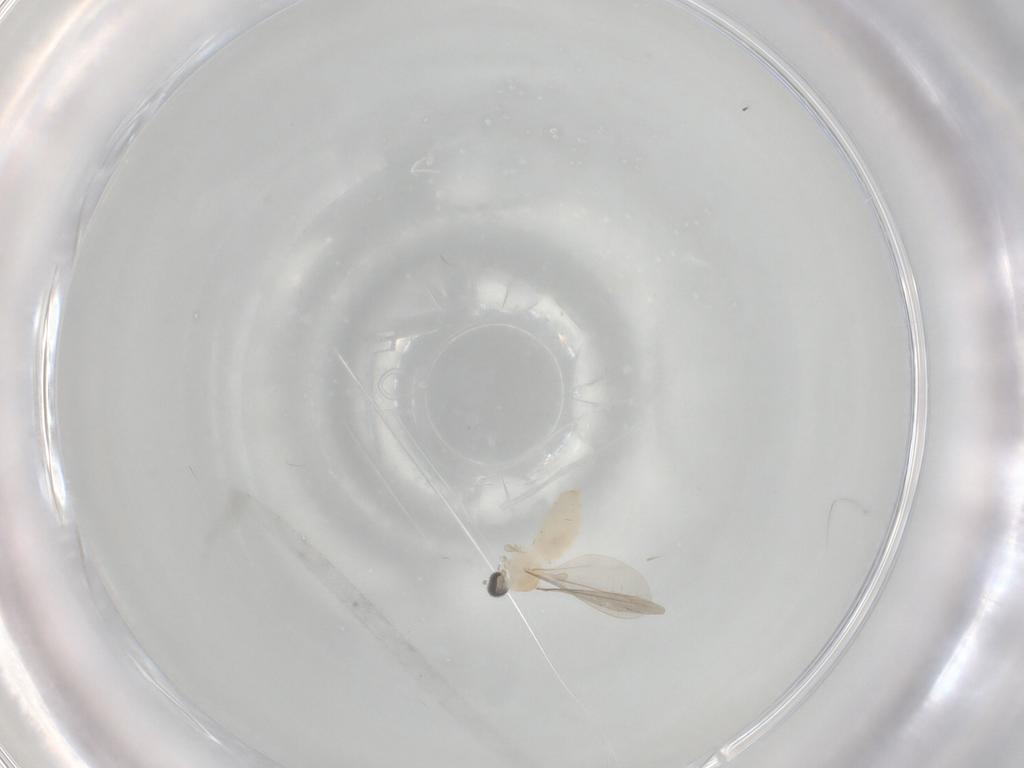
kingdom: Animalia
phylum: Arthropoda
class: Insecta
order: Diptera
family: Cecidomyiidae
